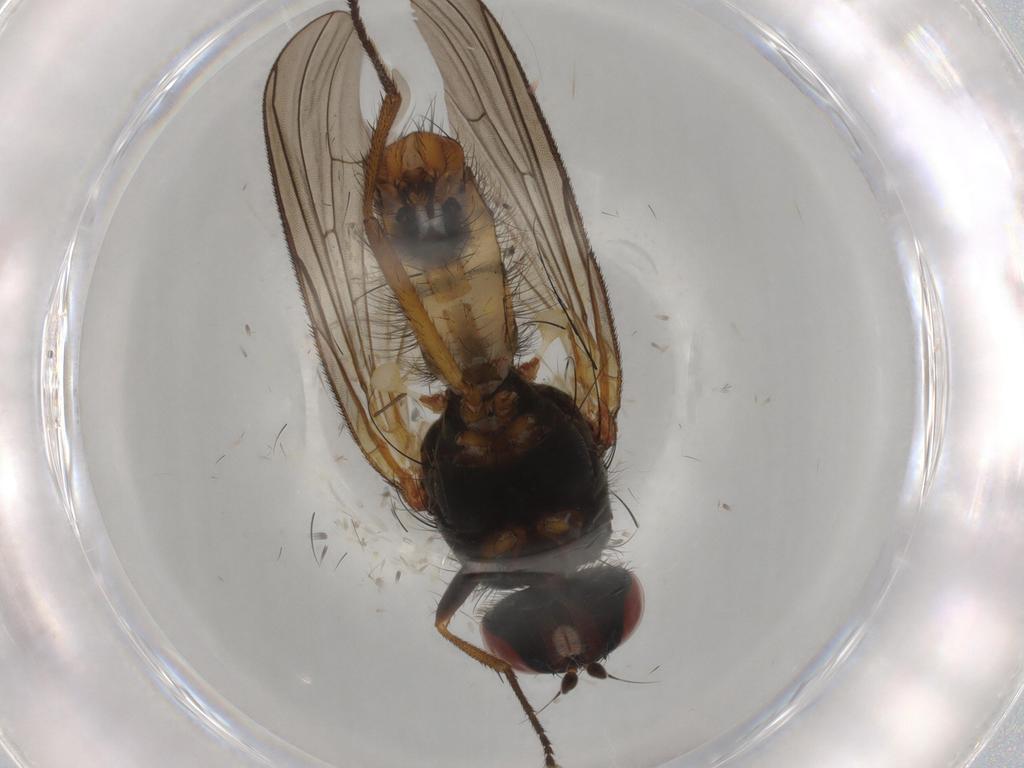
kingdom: Animalia
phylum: Arthropoda
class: Insecta
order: Diptera
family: Anthomyiidae
